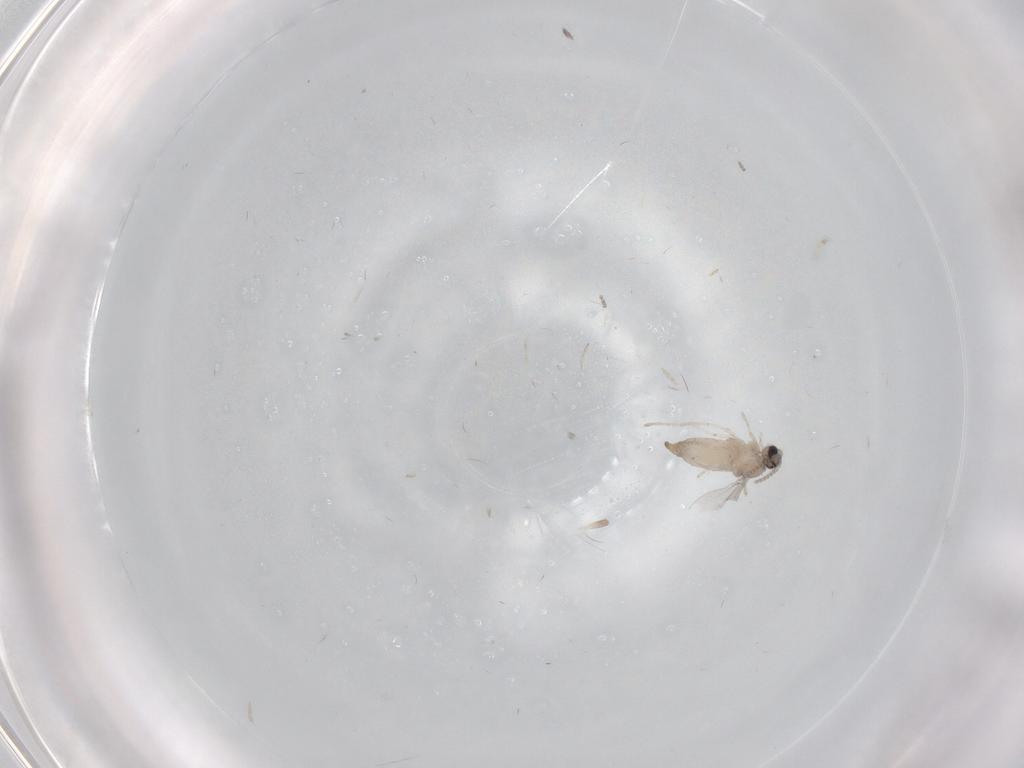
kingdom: Animalia
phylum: Arthropoda
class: Insecta
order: Diptera
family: Cecidomyiidae
